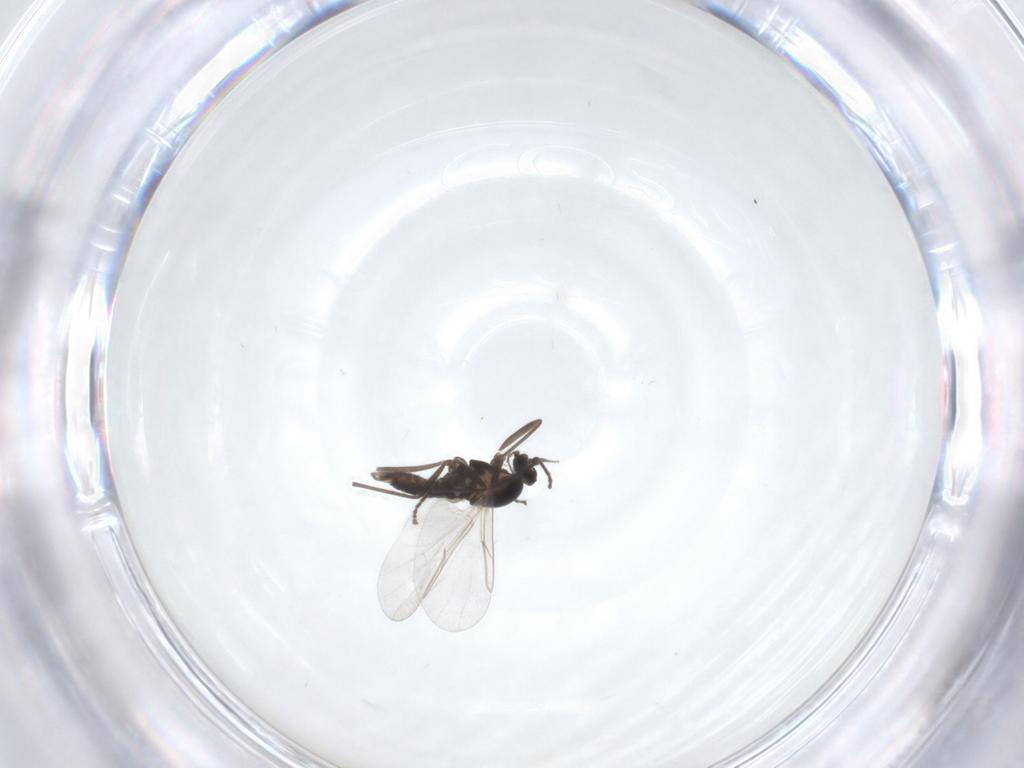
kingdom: Animalia
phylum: Arthropoda
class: Insecta
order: Diptera
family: Cecidomyiidae
